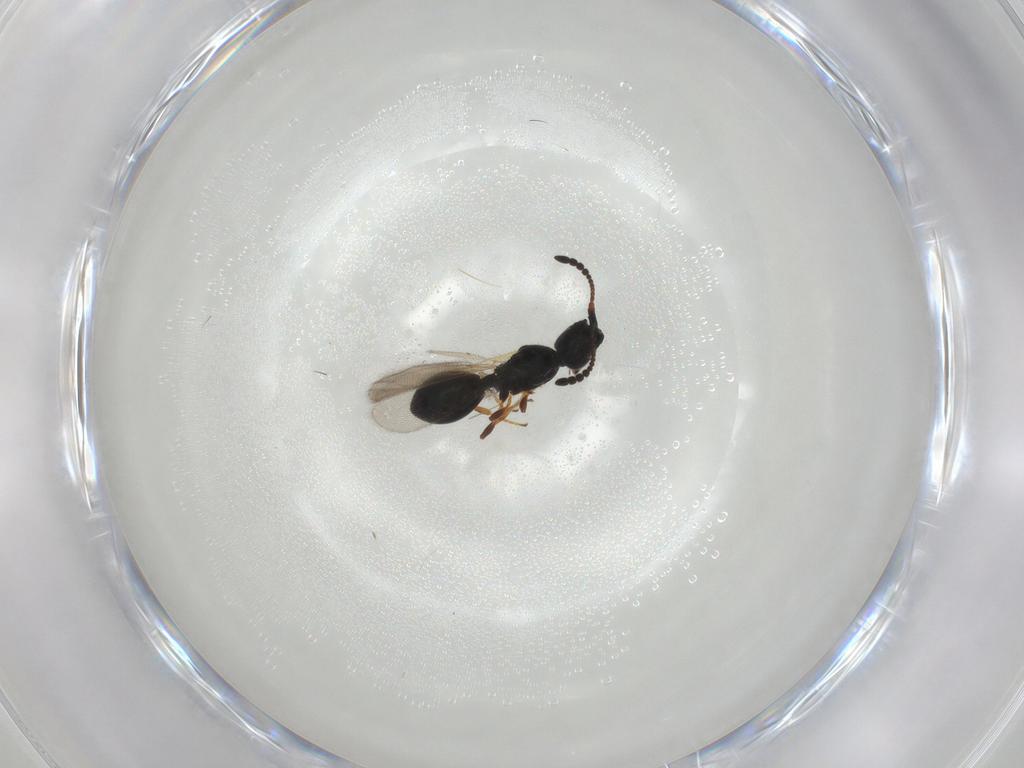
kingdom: Animalia
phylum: Arthropoda
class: Insecta
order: Hymenoptera
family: Diapriidae
